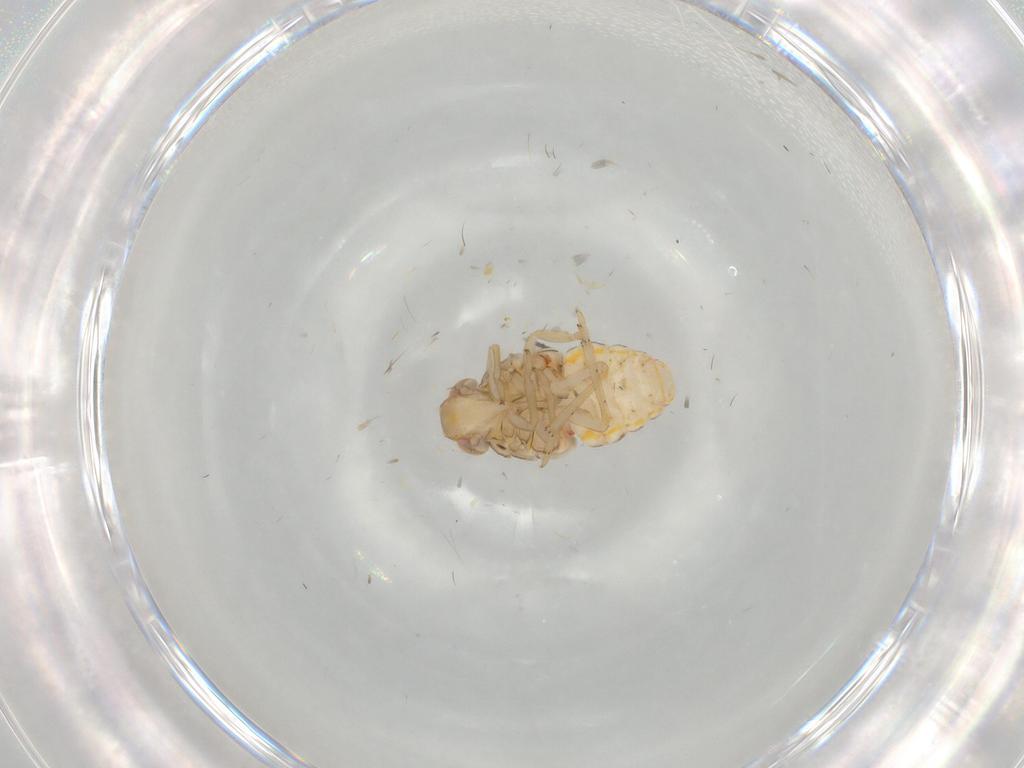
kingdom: Animalia
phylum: Arthropoda
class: Insecta
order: Hemiptera
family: Issidae
